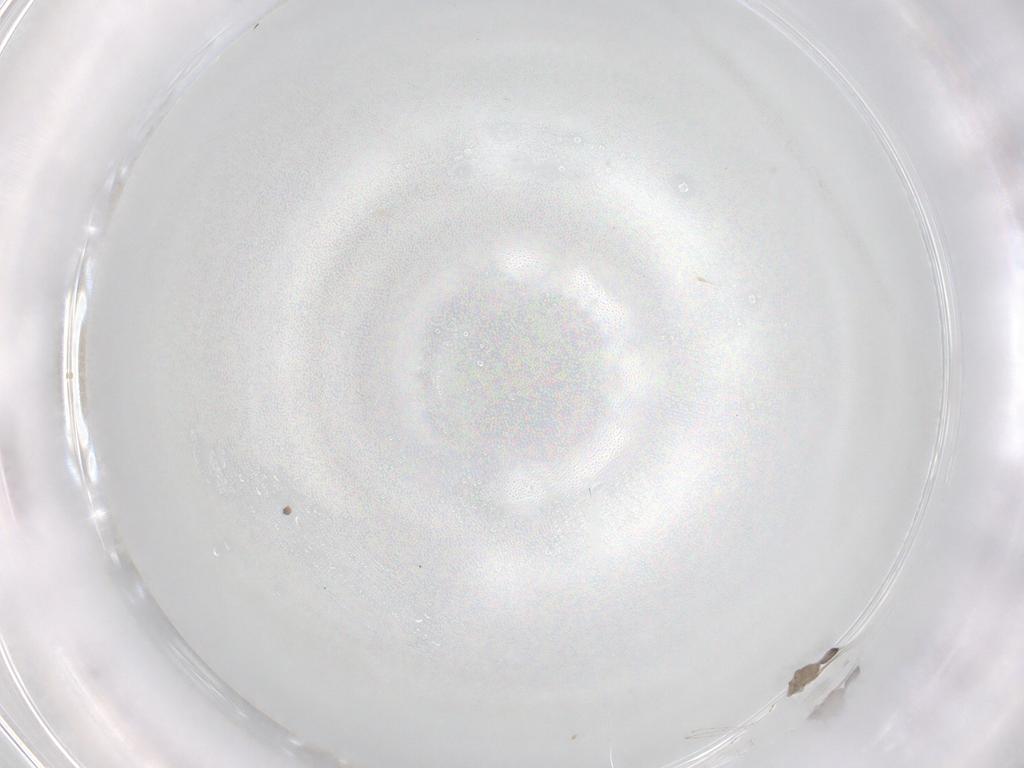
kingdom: Animalia
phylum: Arthropoda
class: Insecta
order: Diptera
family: Cecidomyiidae
